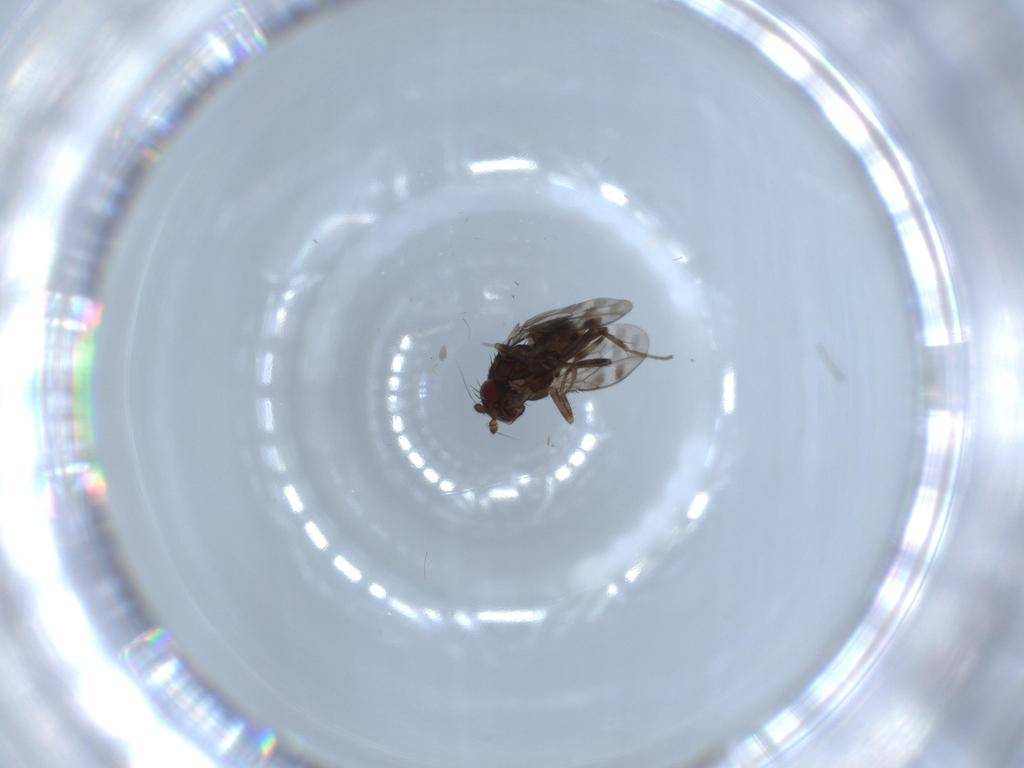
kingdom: Animalia
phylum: Arthropoda
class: Insecta
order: Diptera
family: Sphaeroceridae
